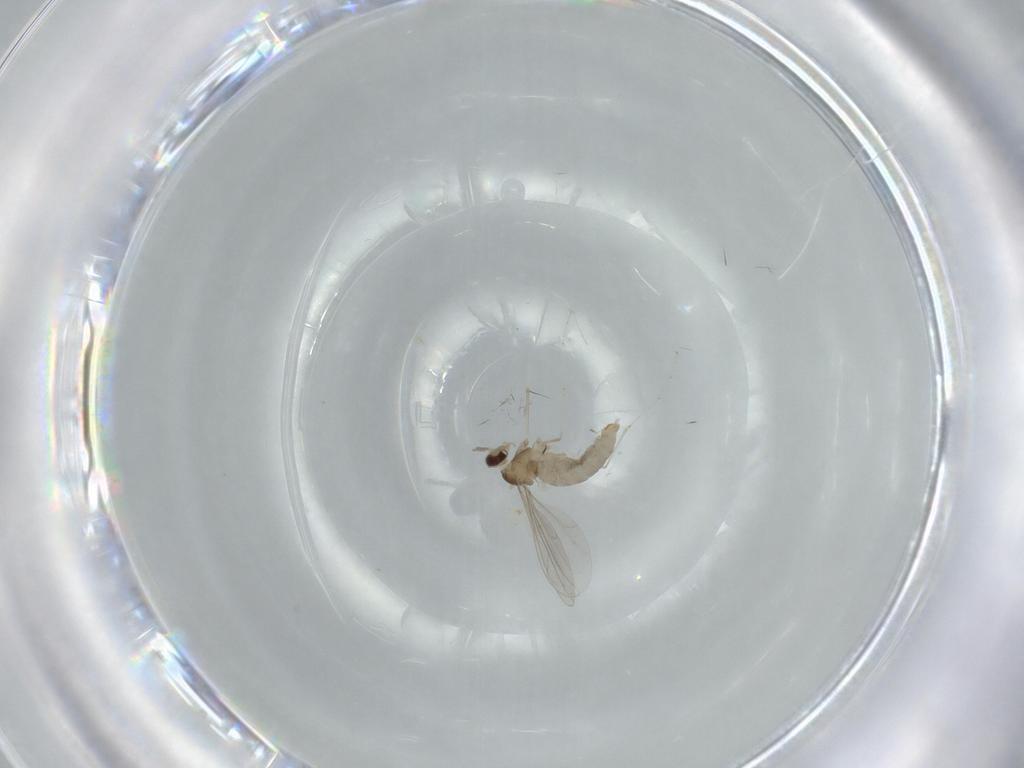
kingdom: Animalia
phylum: Arthropoda
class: Insecta
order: Diptera
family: Cecidomyiidae
